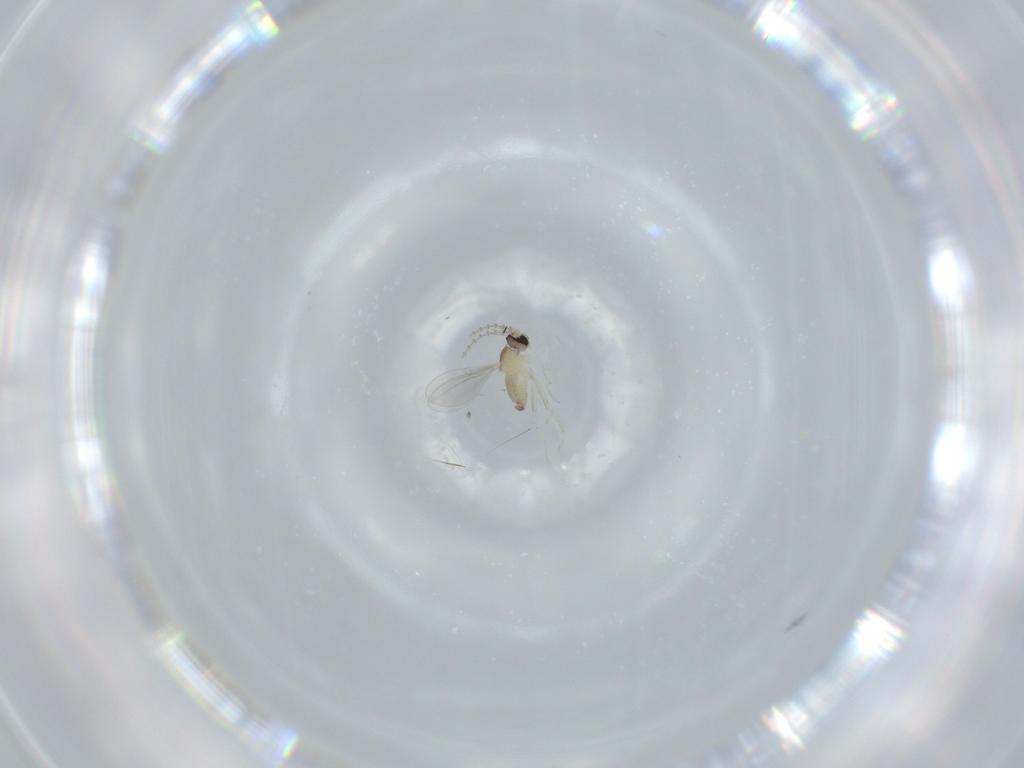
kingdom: Animalia
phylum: Arthropoda
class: Insecta
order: Diptera
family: Cecidomyiidae
